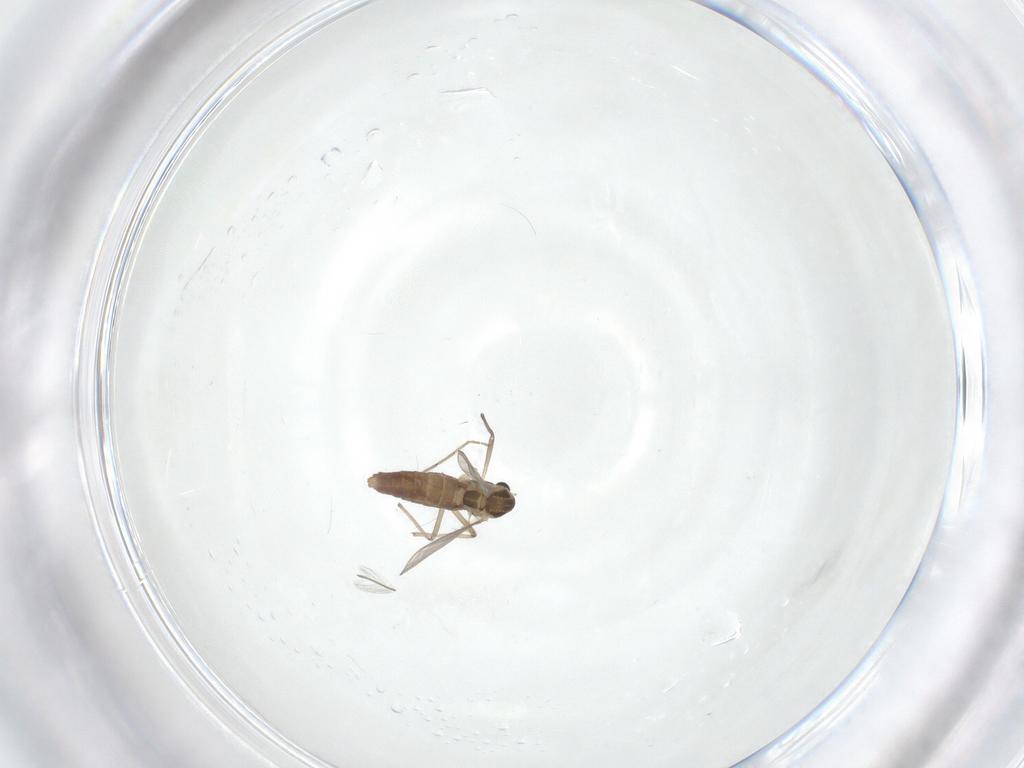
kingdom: Animalia
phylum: Arthropoda
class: Insecta
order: Diptera
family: Chironomidae
